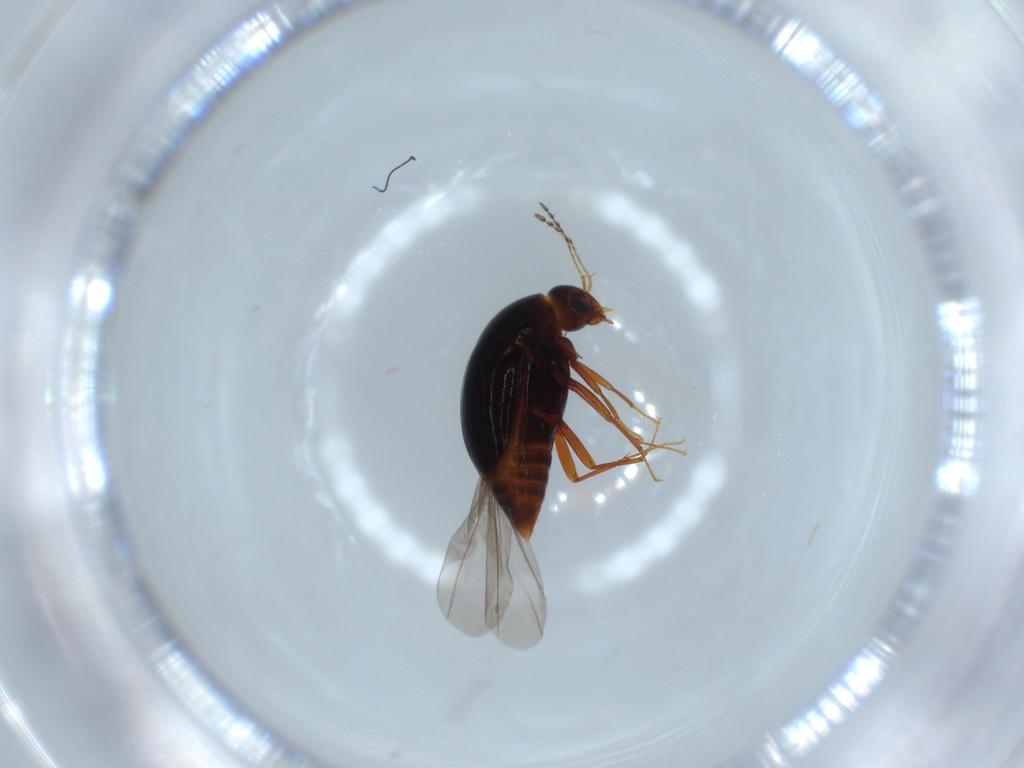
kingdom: Animalia
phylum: Arthropoda
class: Insecta
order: Coleoptera
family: Staphylinidae
